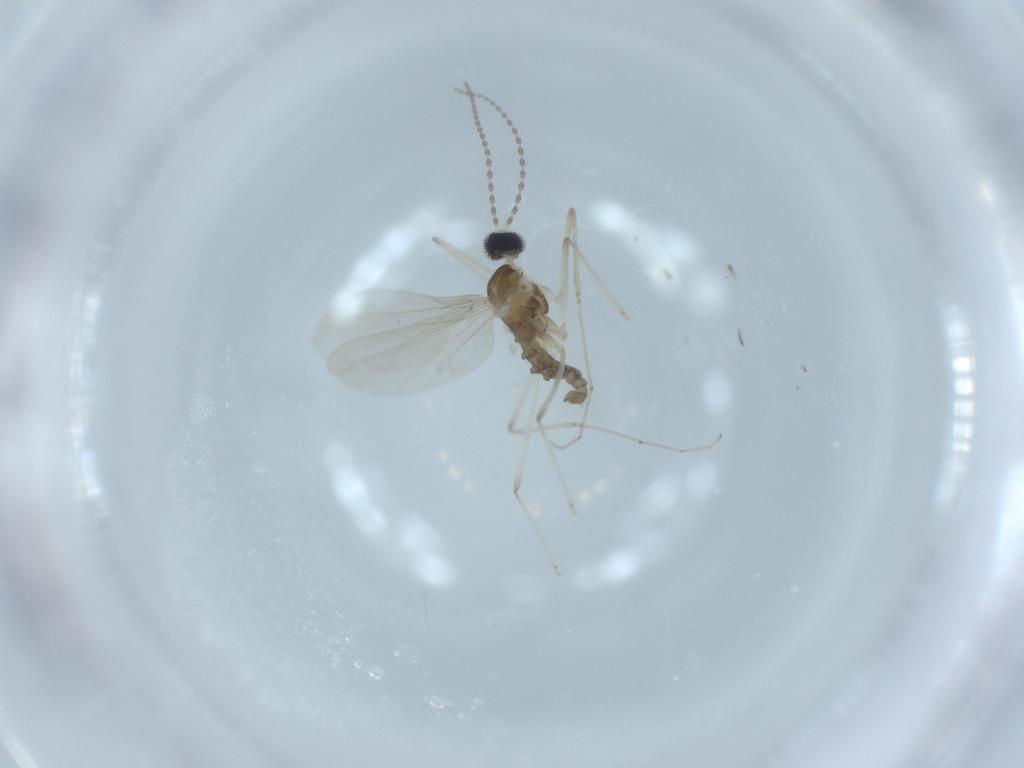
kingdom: Animalia
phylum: Arthropoda
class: Insecta
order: Diptera
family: Cecidomyiidae
